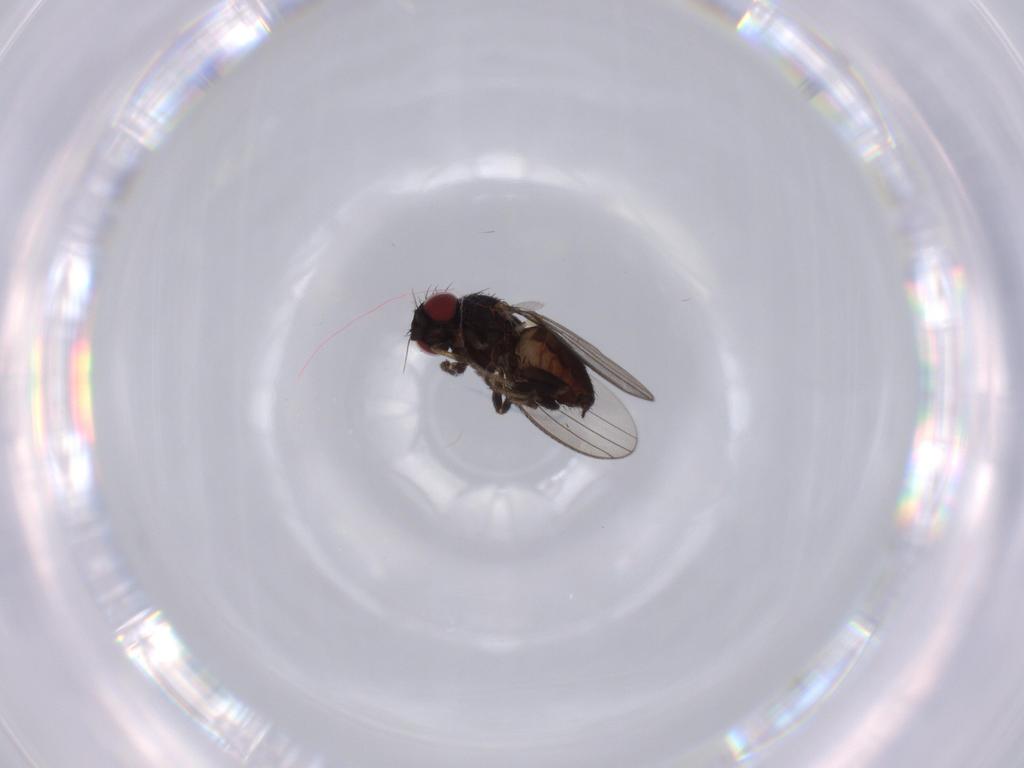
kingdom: Animalia
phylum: Arthropoda
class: Insecta
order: Diptera
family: Milichiidae
